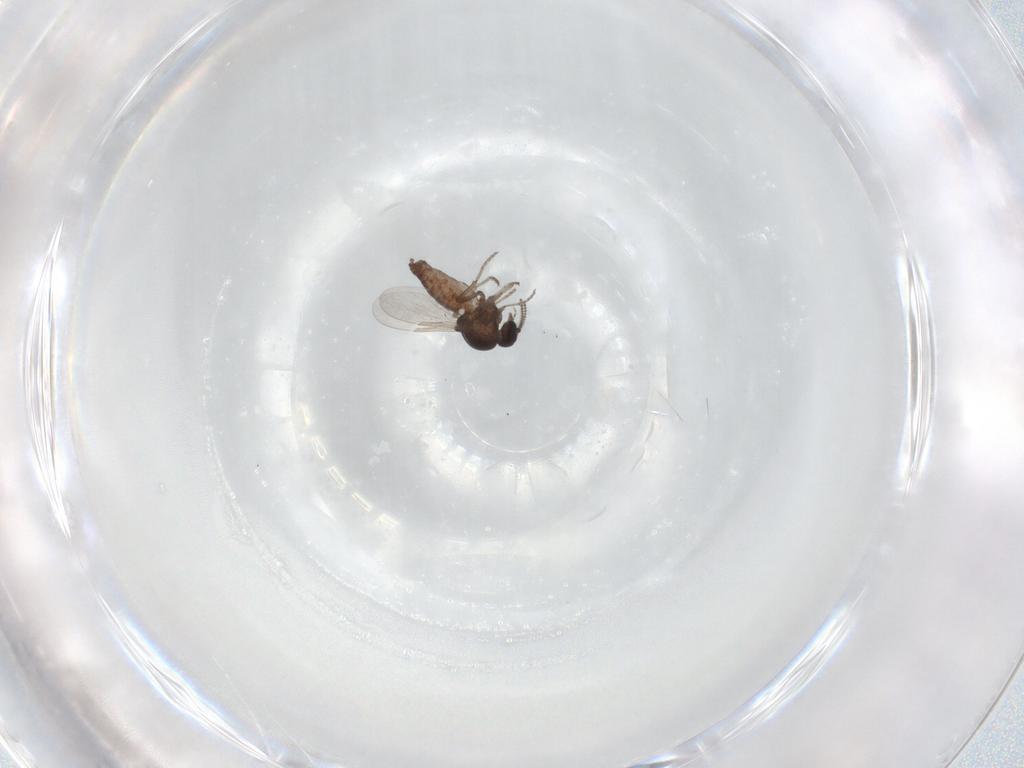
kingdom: Animalia
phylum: Arthropoda
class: Insecta
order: Diptera
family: Ceratopogonidae
